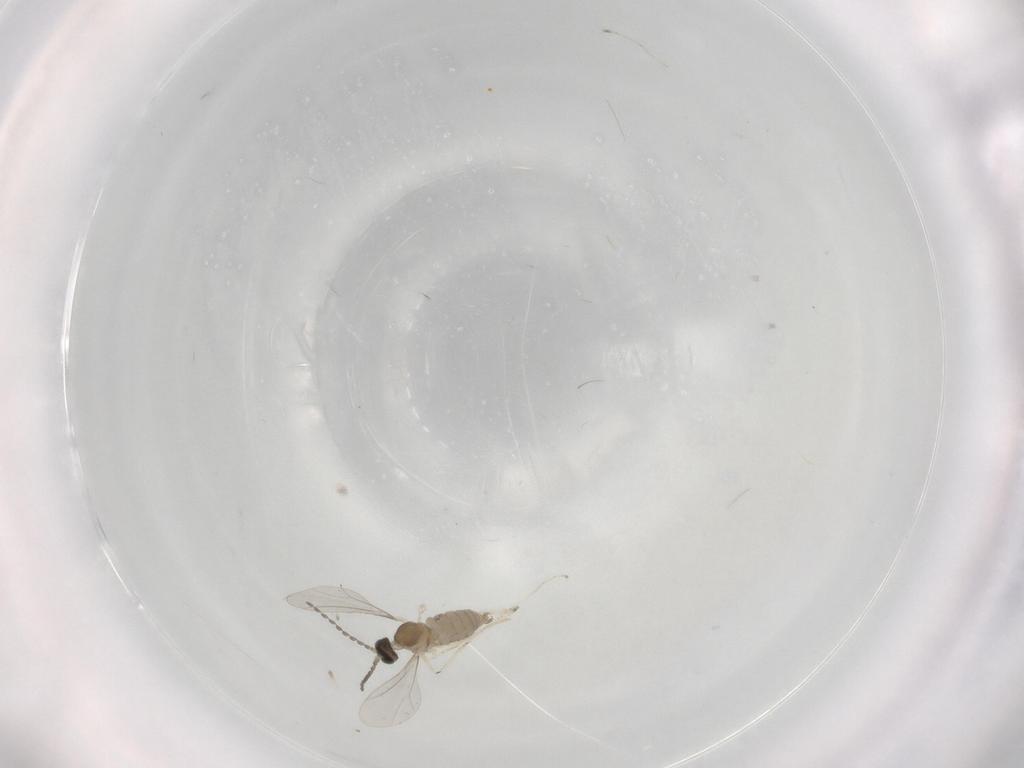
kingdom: Animalia
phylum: Arthropoda
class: Insecta
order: Diptera
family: Cecidomyiidae
